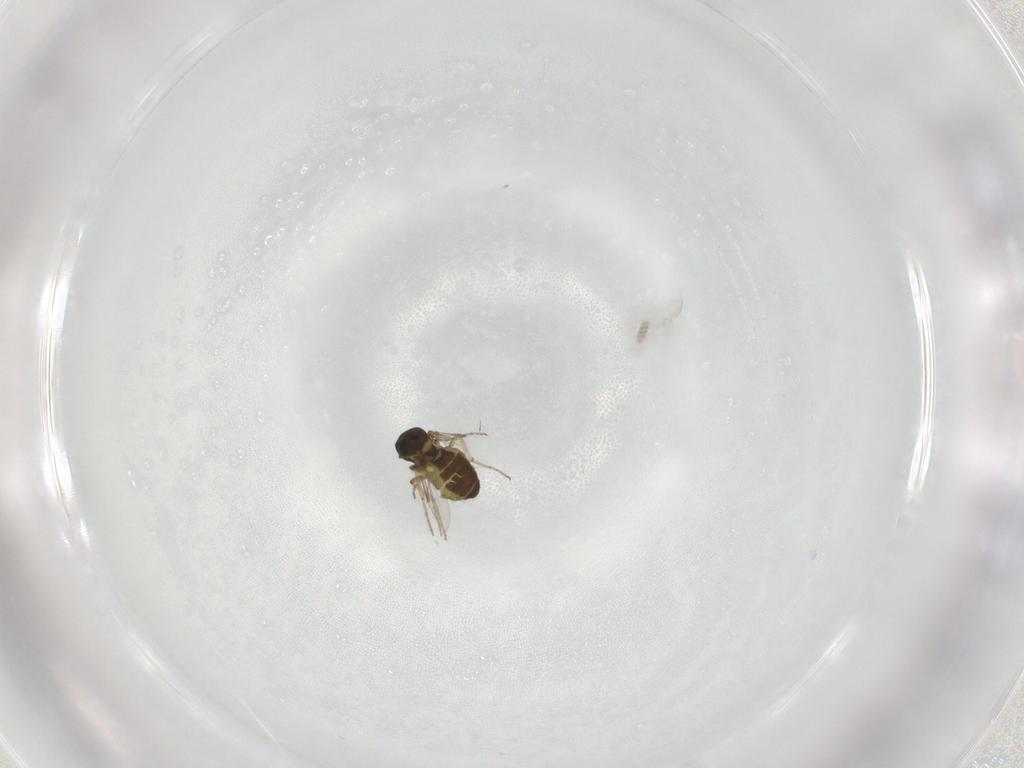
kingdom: Animalia
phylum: Arthropoda
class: Insecta
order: Diptera
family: Ceratopogonidae
